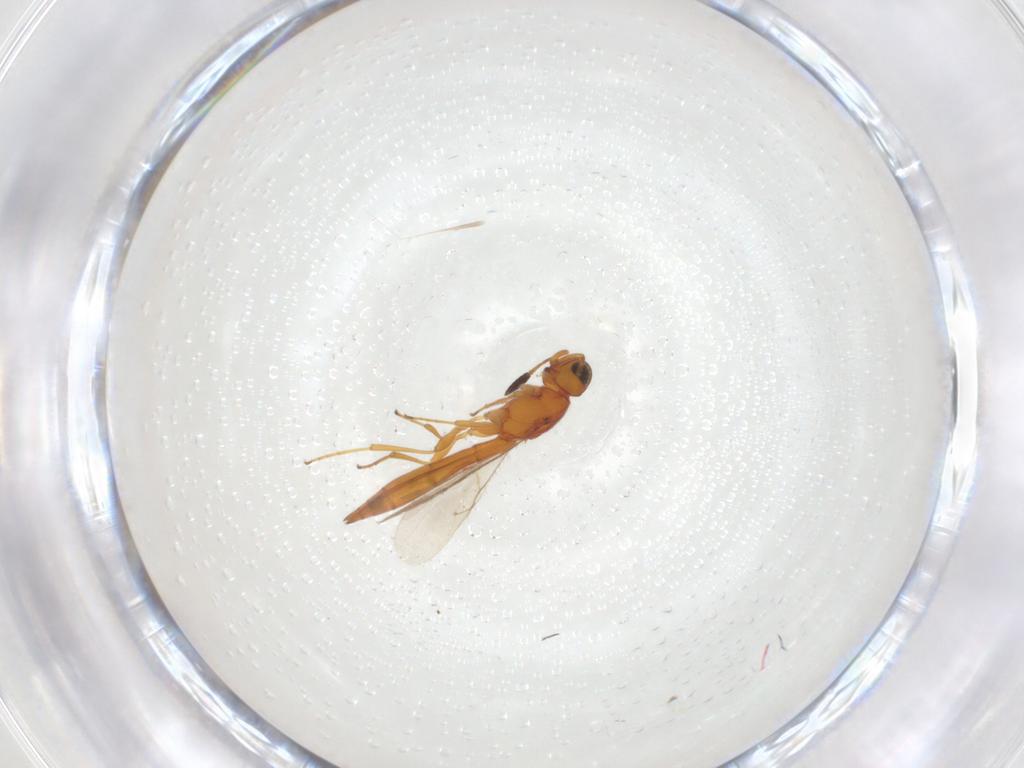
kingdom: Animalia
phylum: Arthropoda
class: Insecta
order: Hymenoptera
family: Scelionidae
